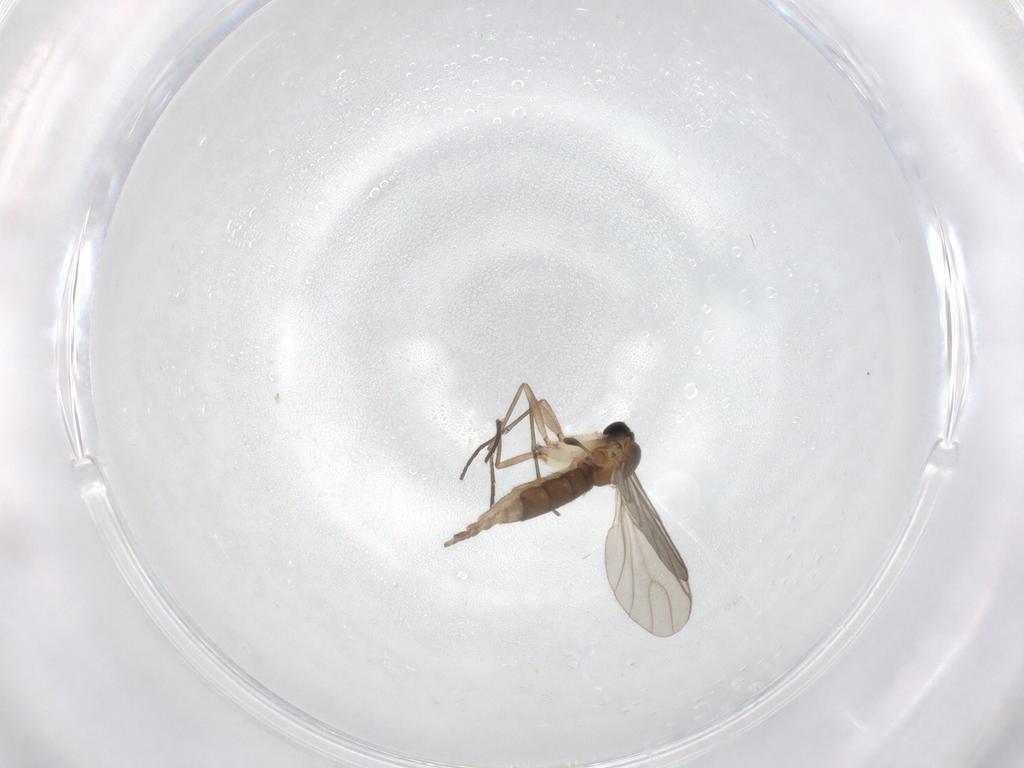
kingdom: Animalia
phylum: Arthropoda
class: Insecta
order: Diptera
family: Sciaridae
